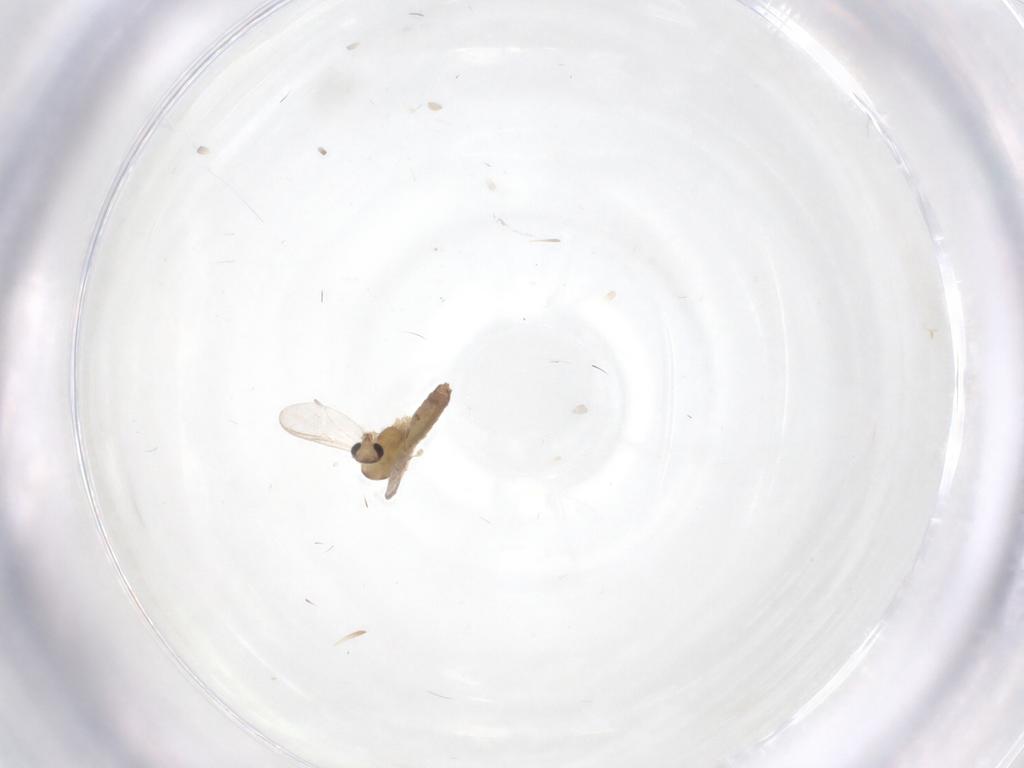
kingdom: Animalia
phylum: Arthropoda
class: Insecta
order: Diptera
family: Chironomidae
